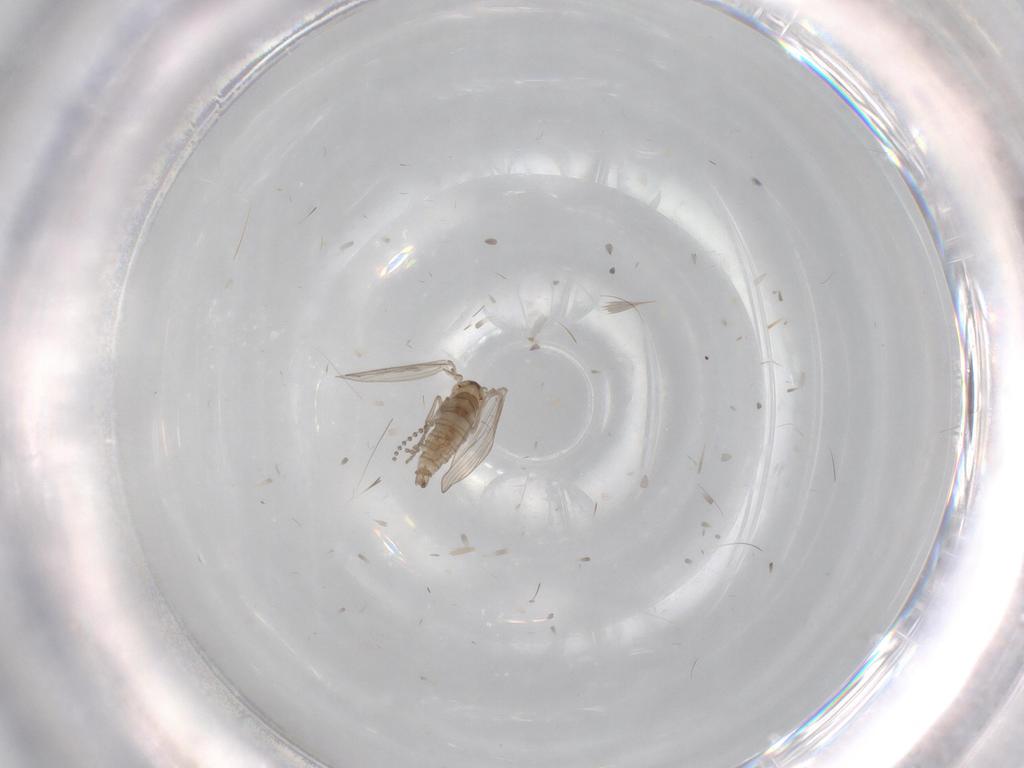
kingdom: Animalia
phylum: Arthropoda
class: Insecta
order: Diptera
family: Psychodidae
